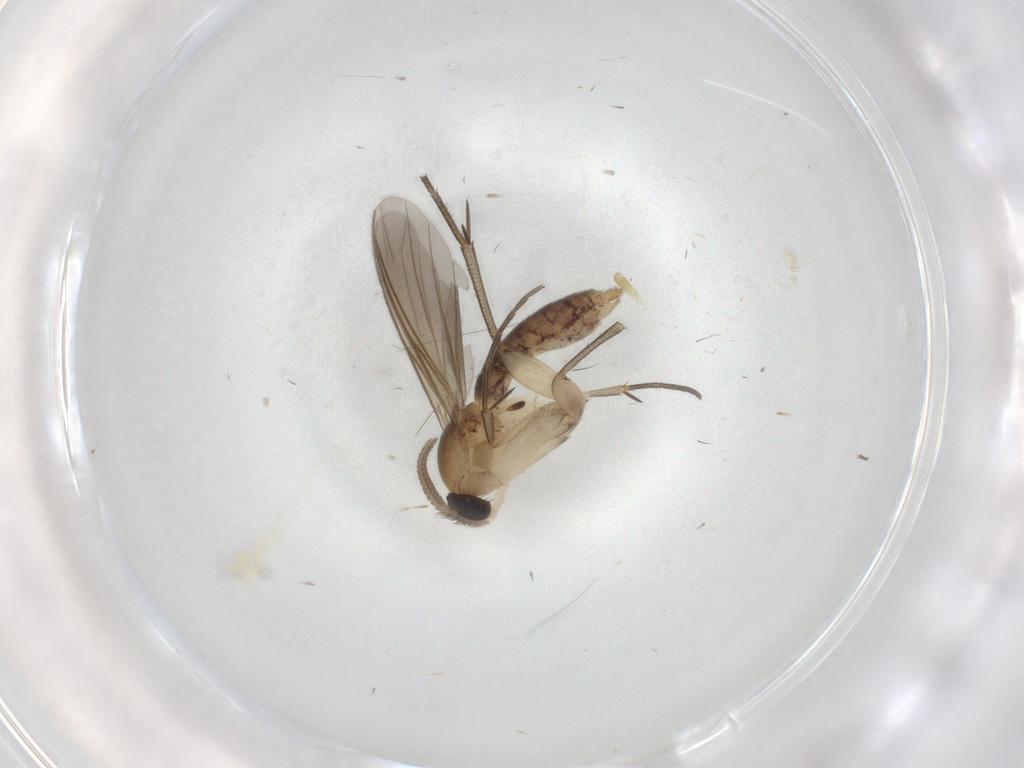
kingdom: Animalia
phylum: Arthropoda
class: Insecta
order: Diptera
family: Mycetophilidae
